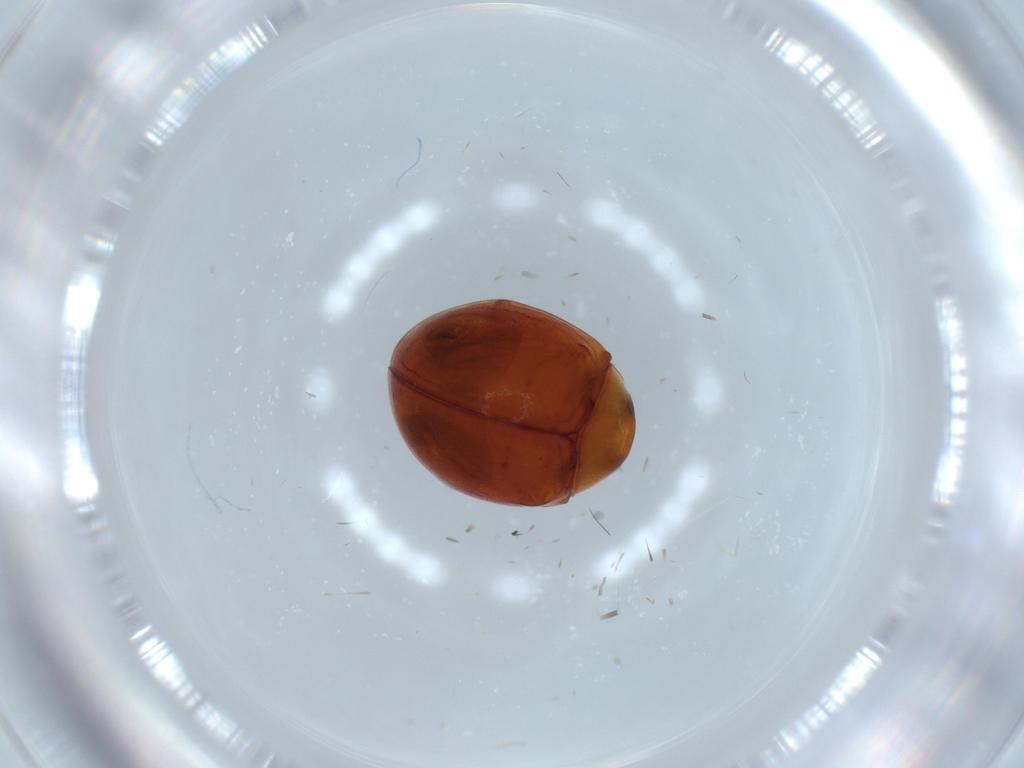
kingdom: Animalia
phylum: Arthropoda
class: Insecta
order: Coleoptera
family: Coccinellidae
